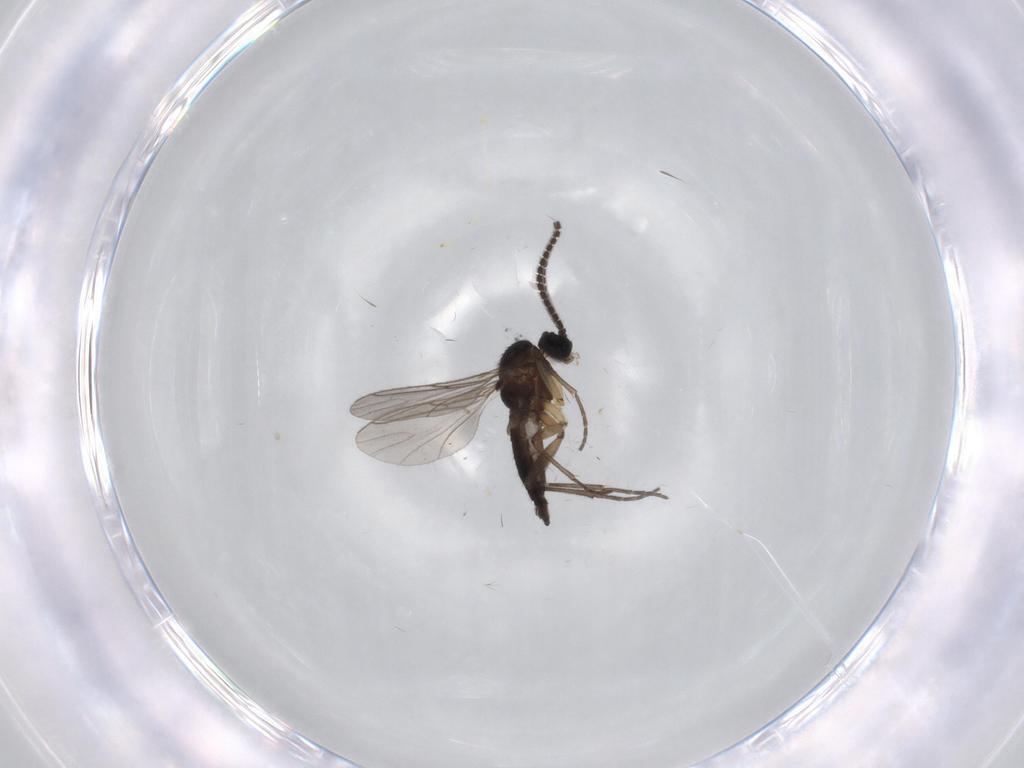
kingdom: Animalia
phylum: Arthropoda
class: Insecta
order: Diptera
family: Sciaridae
